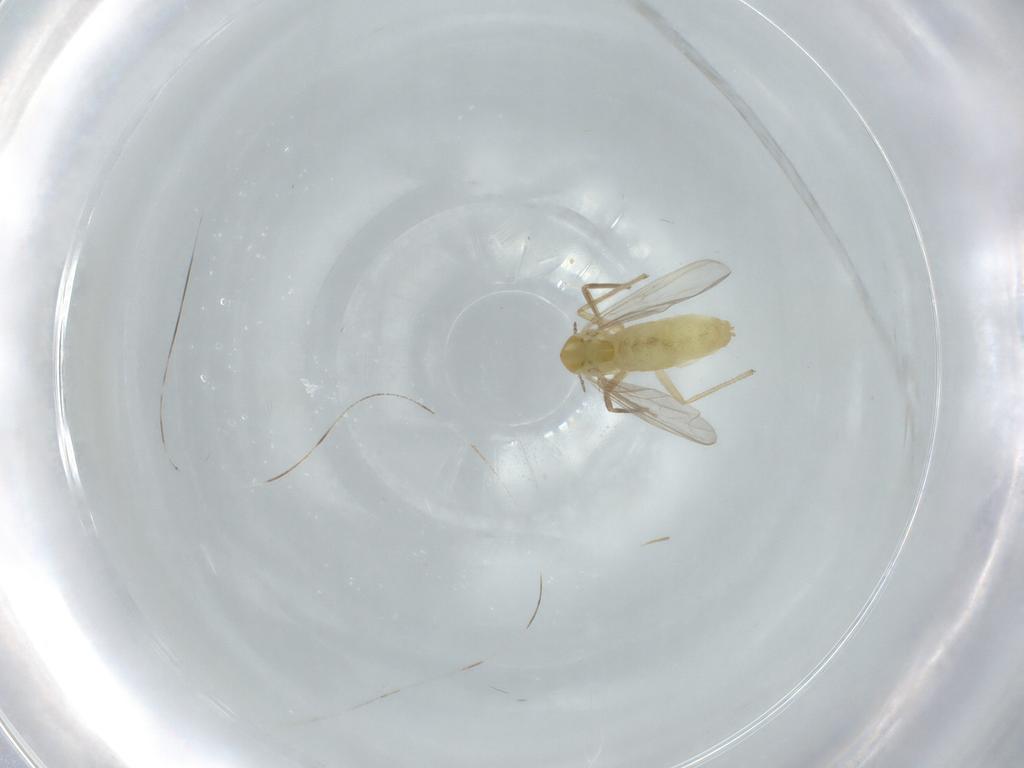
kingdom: Animalia
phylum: Arthropoda
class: Insecta
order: Diptera
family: Chironomidae
